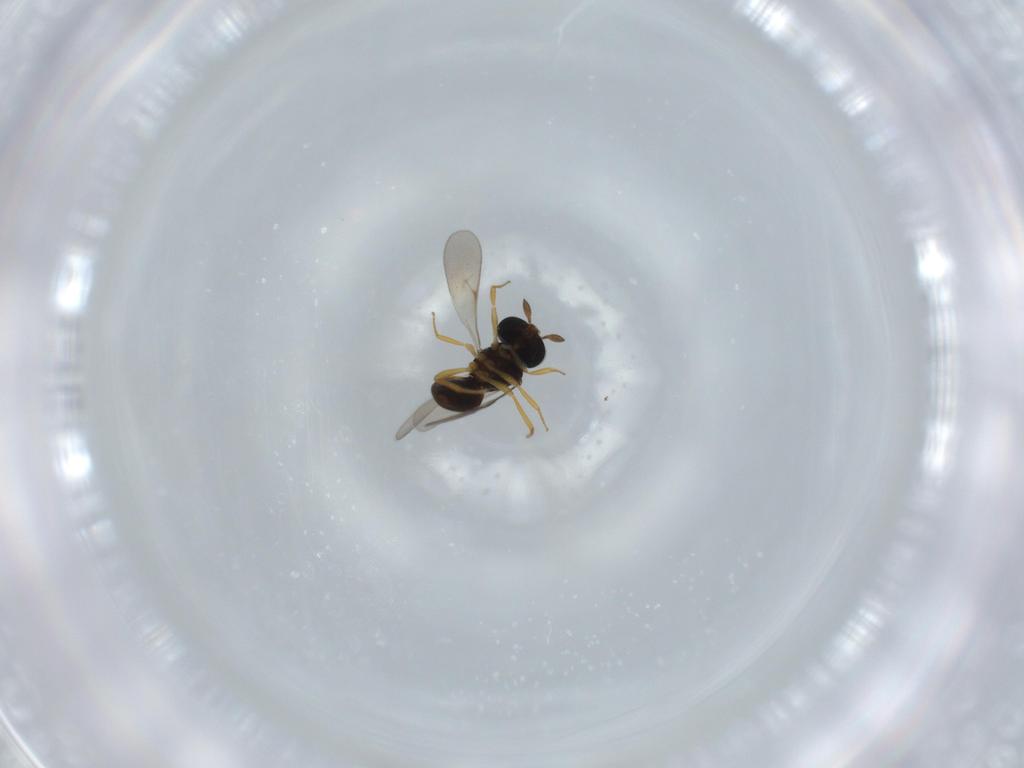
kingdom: Animalia
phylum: Arthropoda
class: Insecta
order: Hymenoptera
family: Scelionidae
